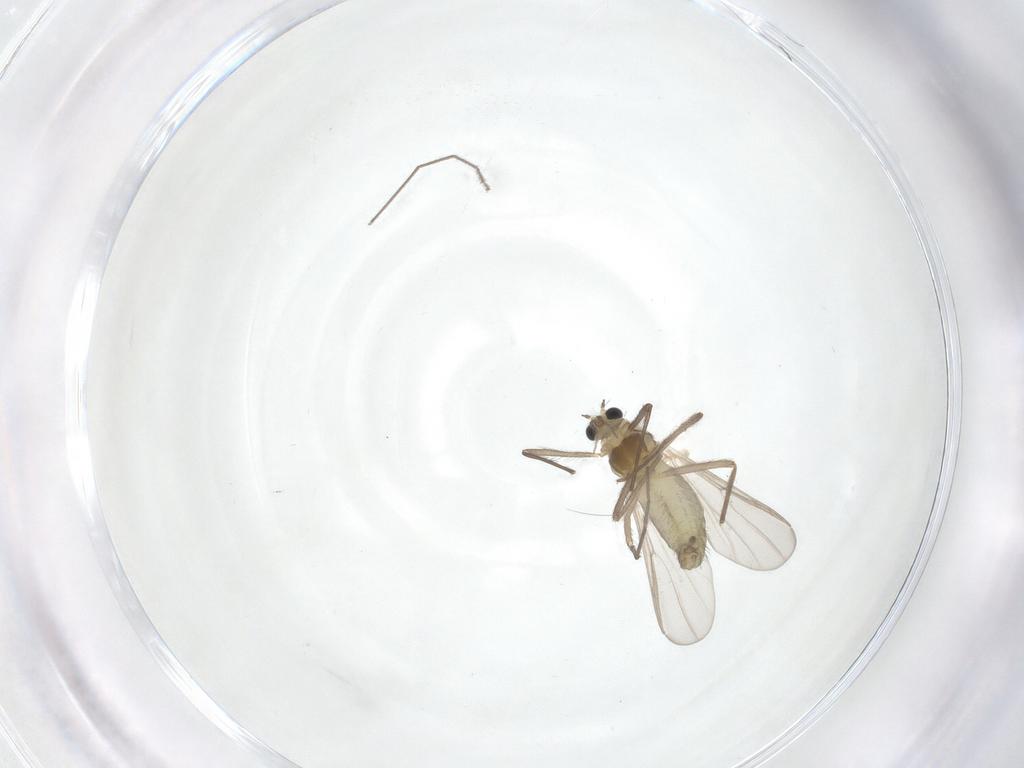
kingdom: Animalia
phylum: Arthropoda
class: Insecta
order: Diptera
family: Chironomidae
